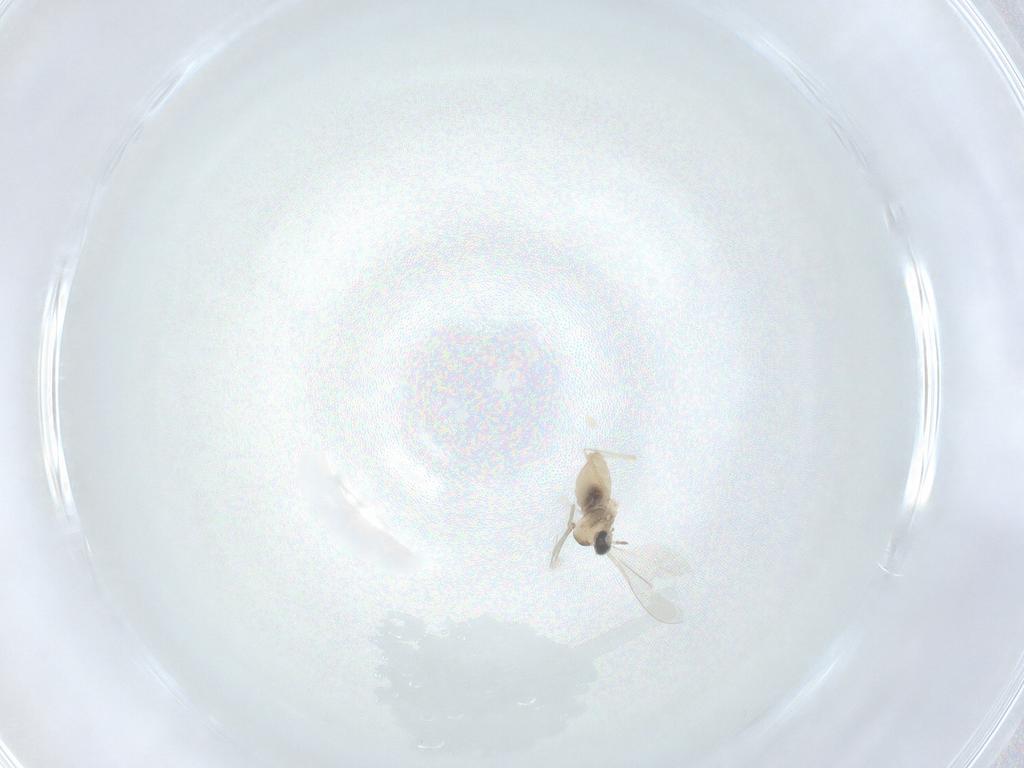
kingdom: Animalia
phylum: Arthropoda
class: Insecta
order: Diptera
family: Cecidomyiidae
